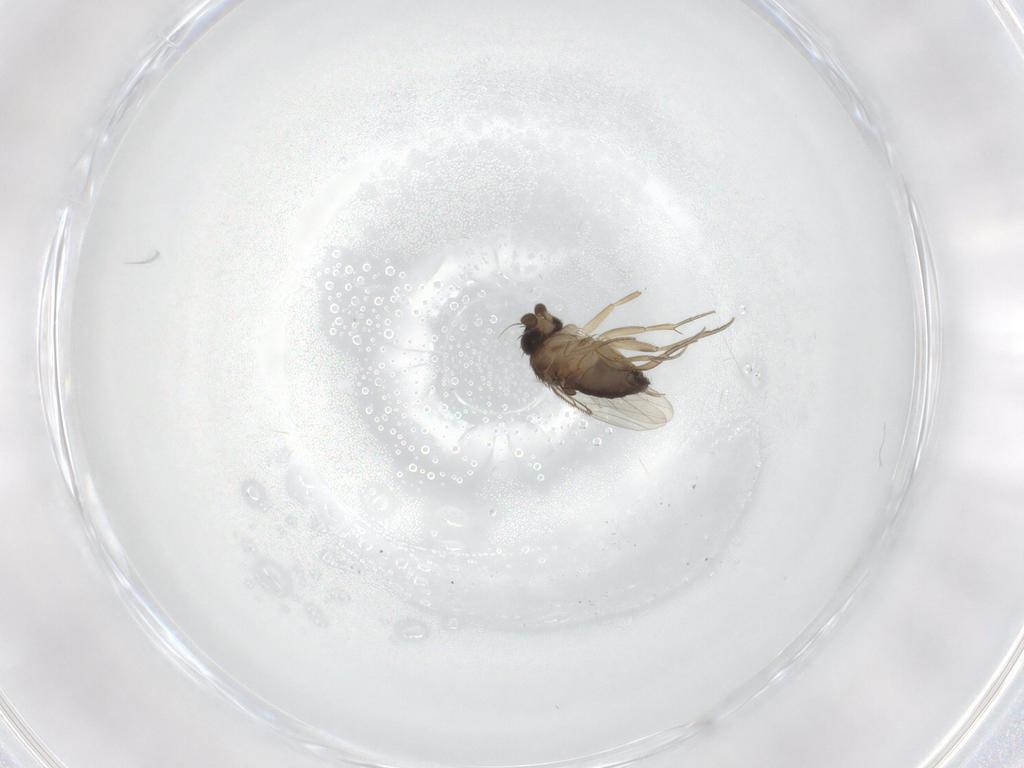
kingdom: Animalia
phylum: Arthropoda
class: Insecta
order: Diptera
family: Phoridae
